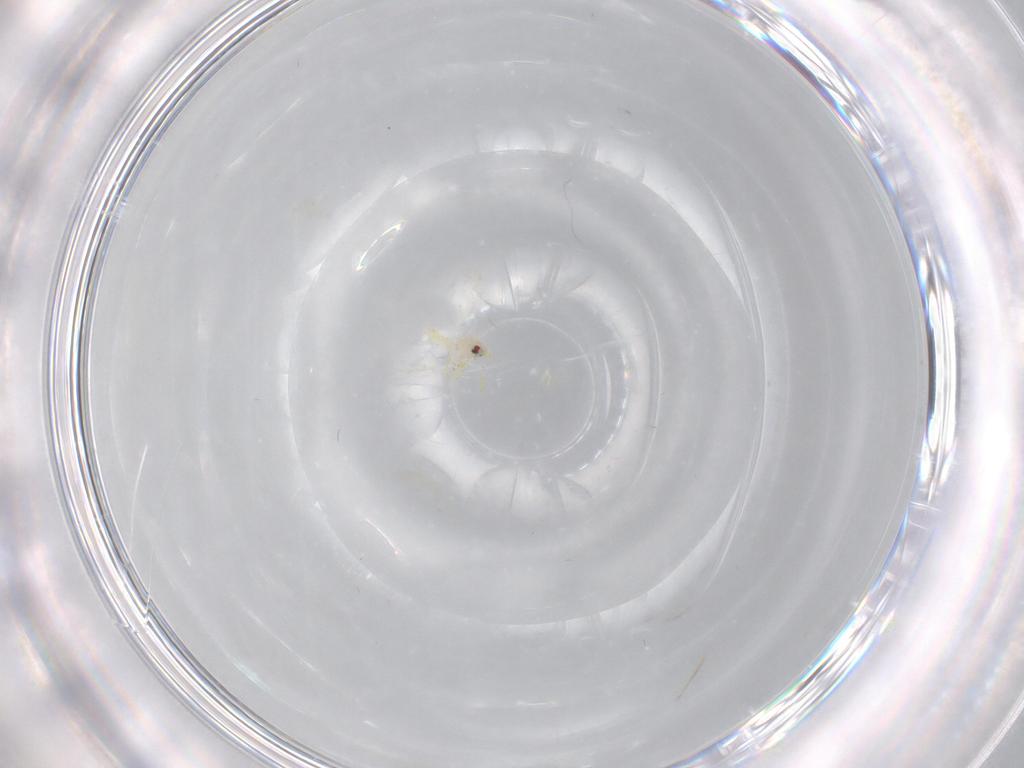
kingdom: Animalia
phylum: Arthropoda
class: Insecta
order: Hemiptera
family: Aleyrodidae
